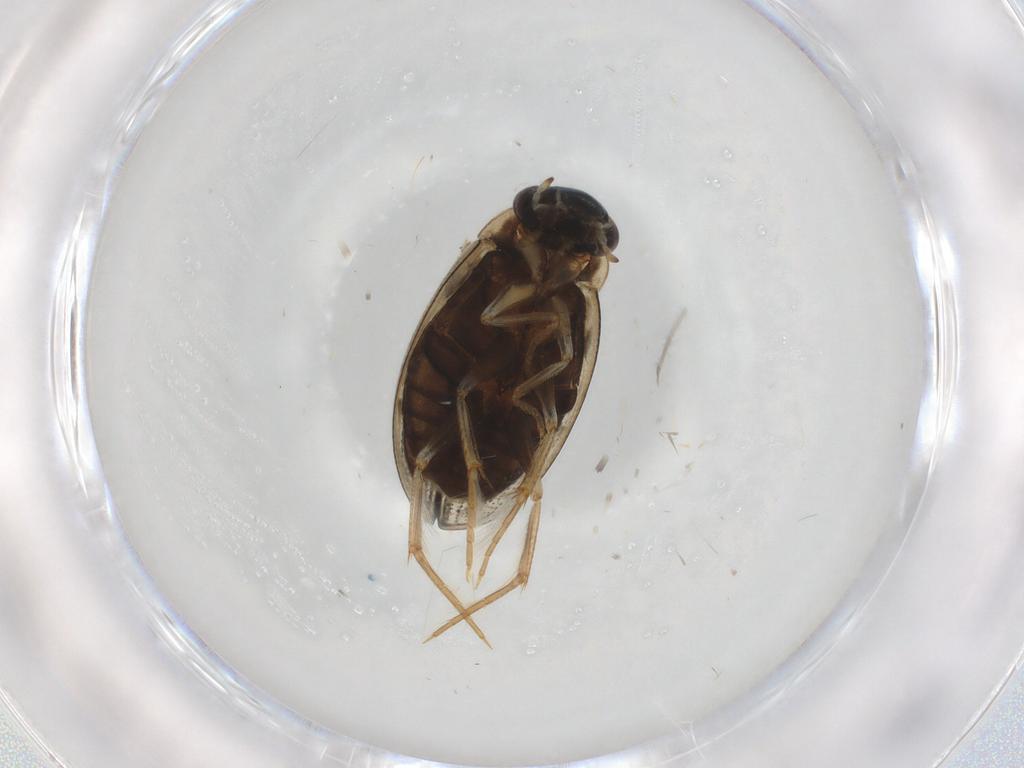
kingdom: Animalia
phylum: Arthropoda
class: Insecta
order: Coleoptera
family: Hydrophilidae
